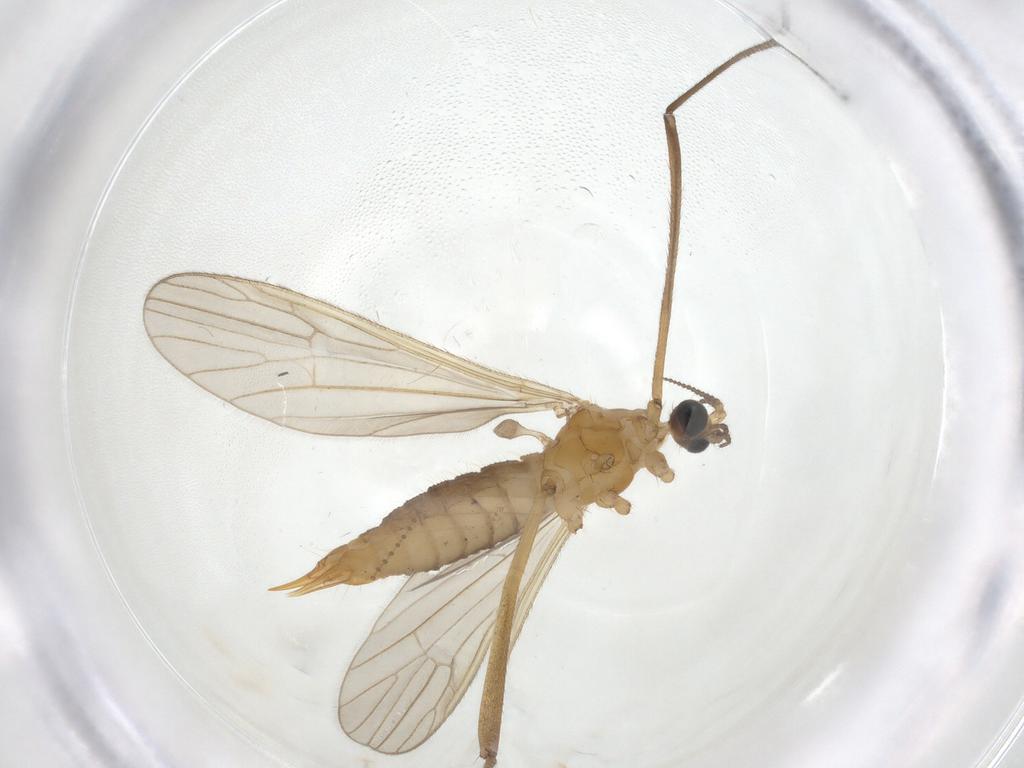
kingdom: Animalia
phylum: Arthropoda
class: Insecta
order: Diptera
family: Limoniidae
